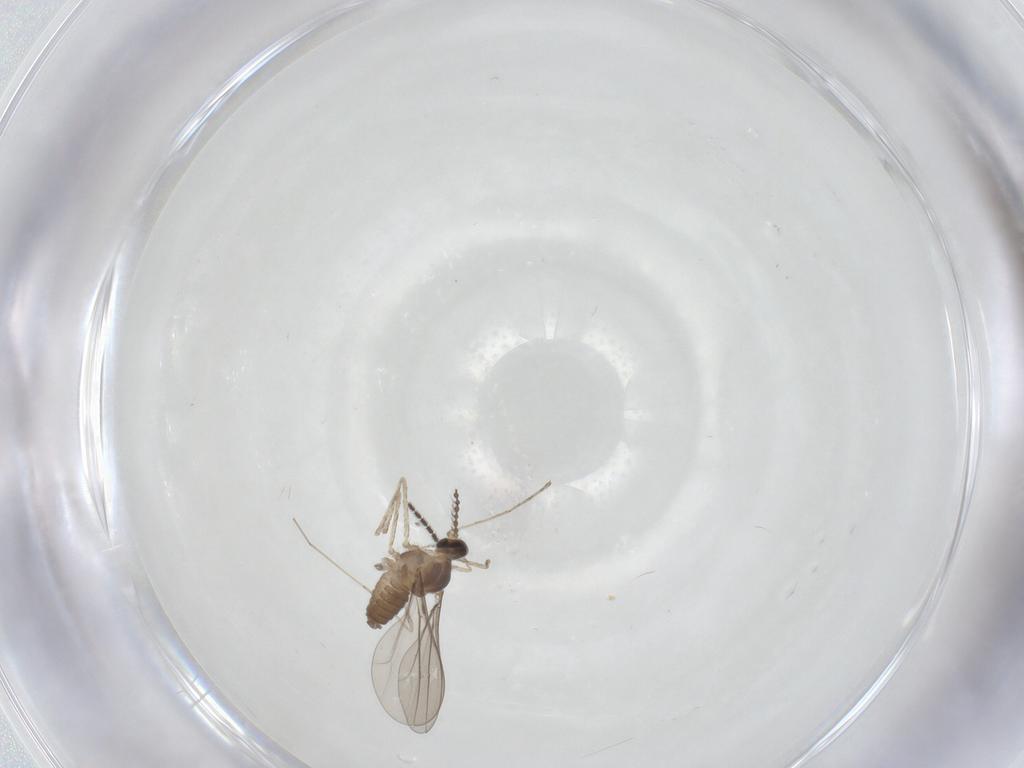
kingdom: Animalia
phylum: Arthropoda
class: Insecta
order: Diptera
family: Cecidomyiidae
